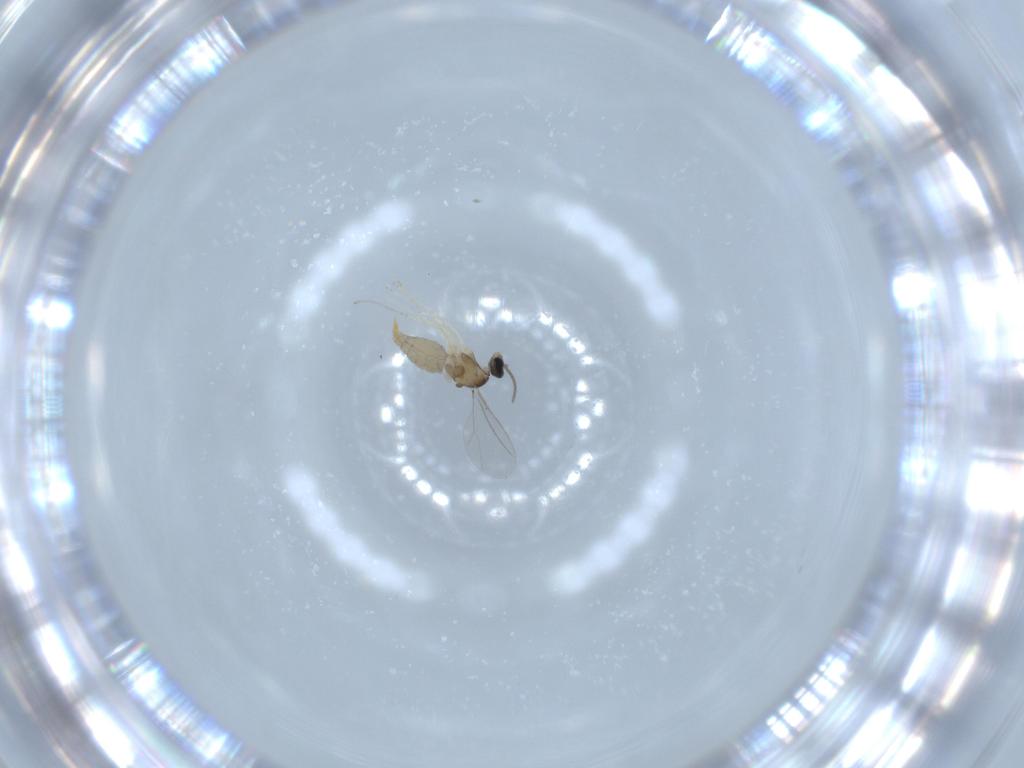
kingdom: Animalia
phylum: Arthropoda
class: Insecta
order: Diptera
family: Cecidomyiidae
